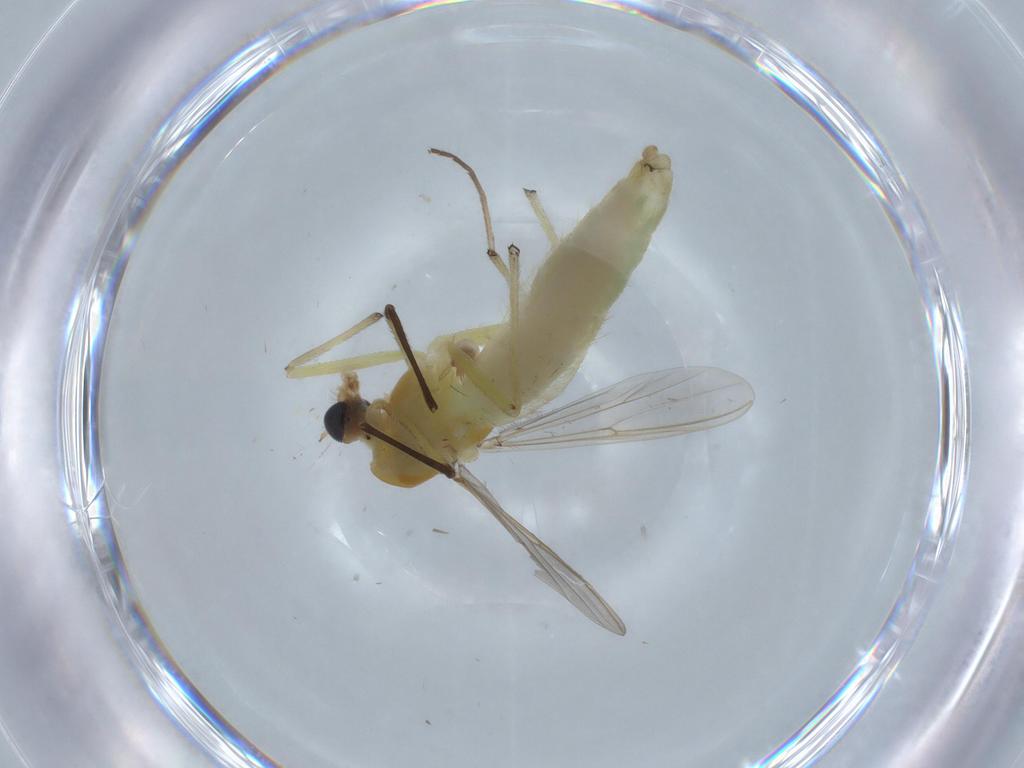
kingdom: Animalia
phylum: Arthropoda
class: Insecta
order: Diptera
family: Chironomidae
